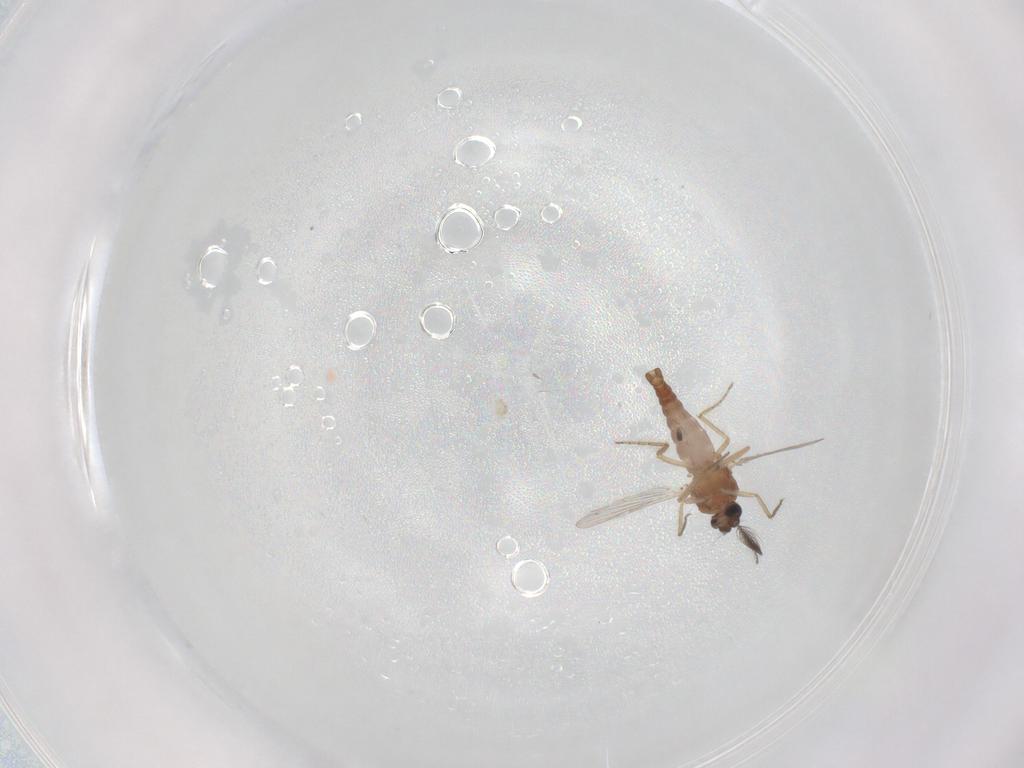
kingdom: Animalia
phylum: Arthropoda
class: Insecta
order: Diptera
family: Ceratopogonidae
